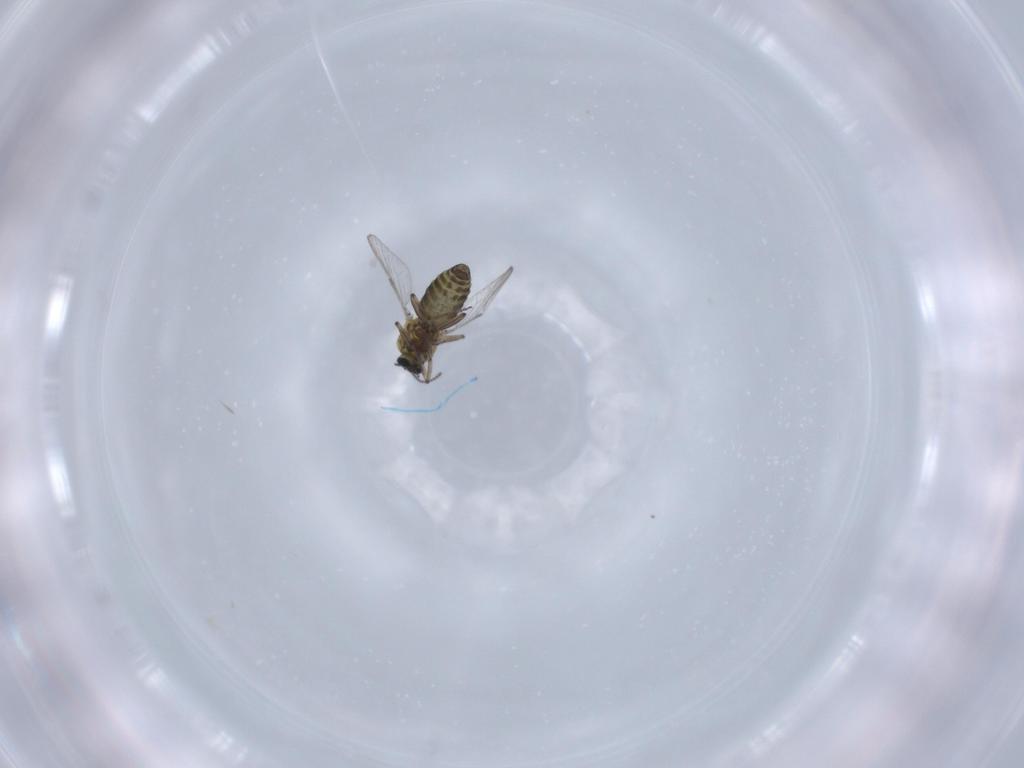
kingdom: Animalia
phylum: Arthropoda
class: Insecta
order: Diptera
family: Ceratopogonidae
